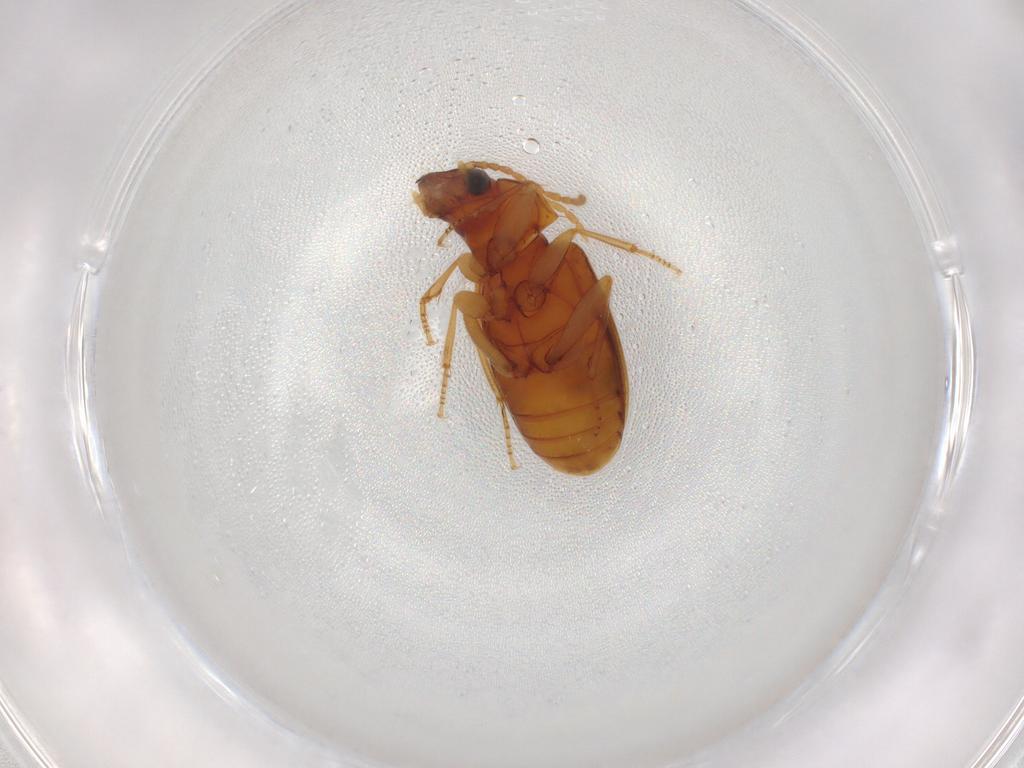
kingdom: Animalia
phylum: Arthropoda
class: Insecta
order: Coleoptera
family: Carabidae
